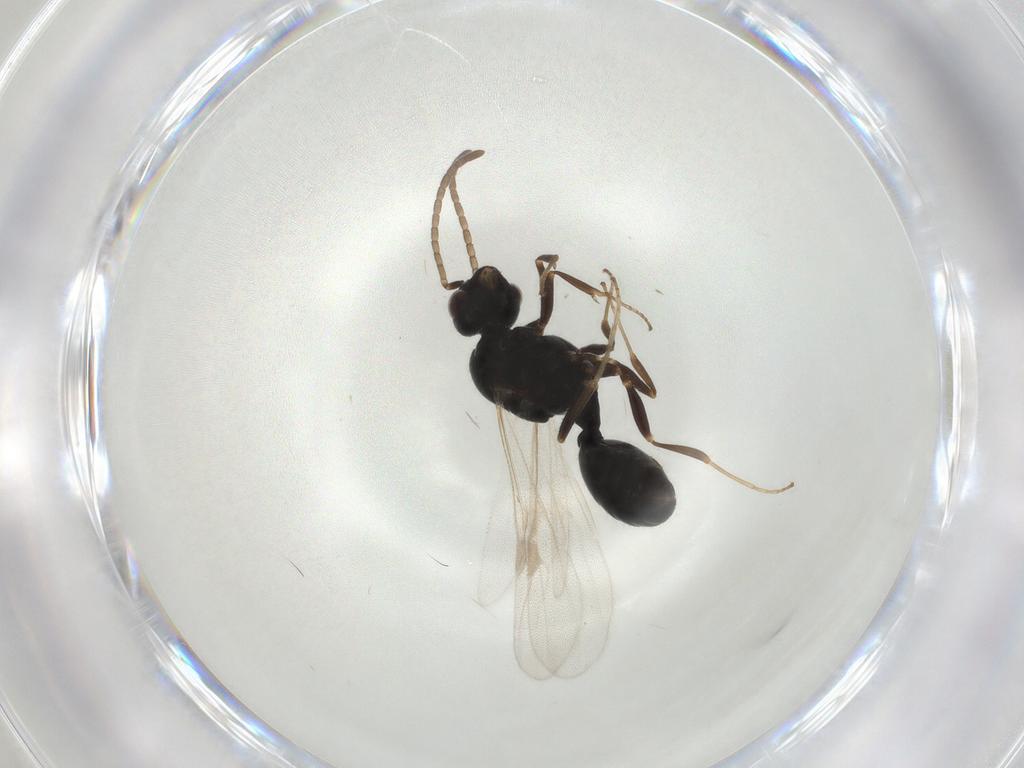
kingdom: Animalia
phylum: Arthropoda
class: Insecta
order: Hymenoptera
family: Formicidae
